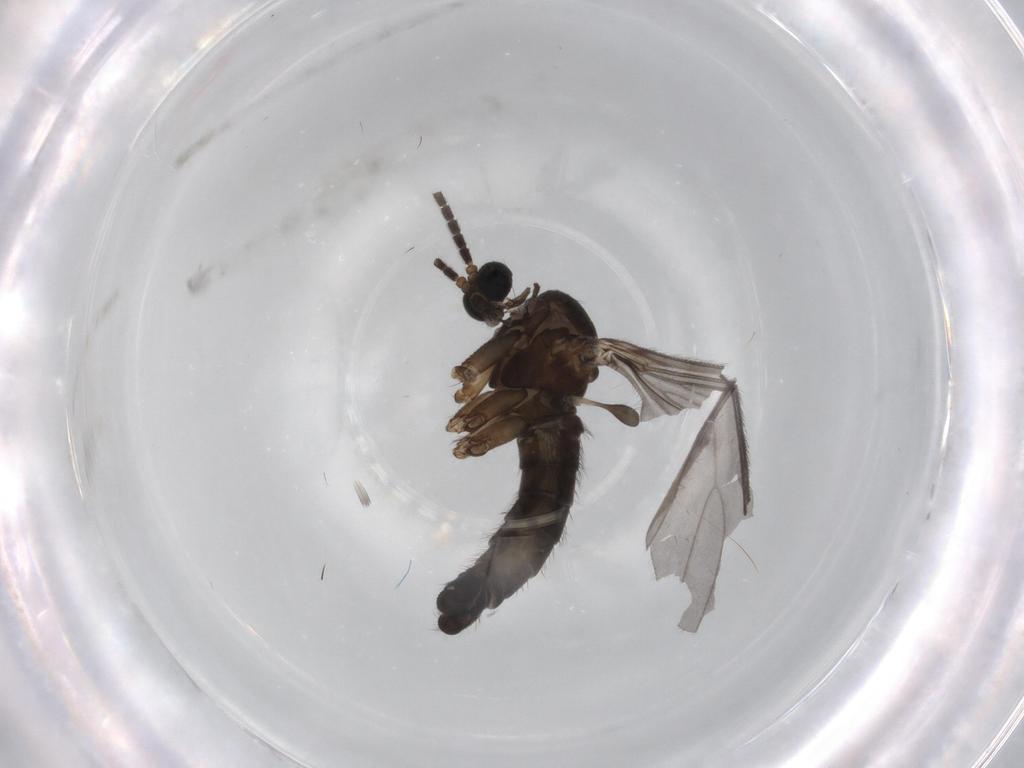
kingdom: Animalia
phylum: Arthropoda
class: Insecta
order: Diptera
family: Sciaridae
